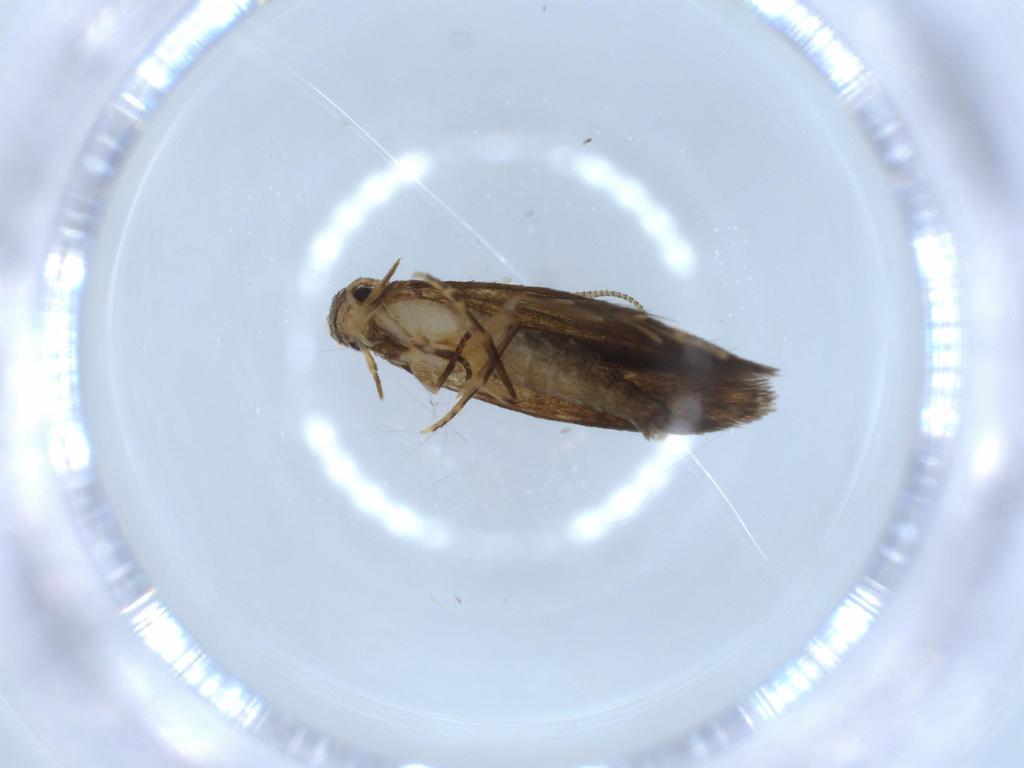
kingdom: Animalia
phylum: Arthropoda
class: Insecta
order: Lepidoptera
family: Tineidae
